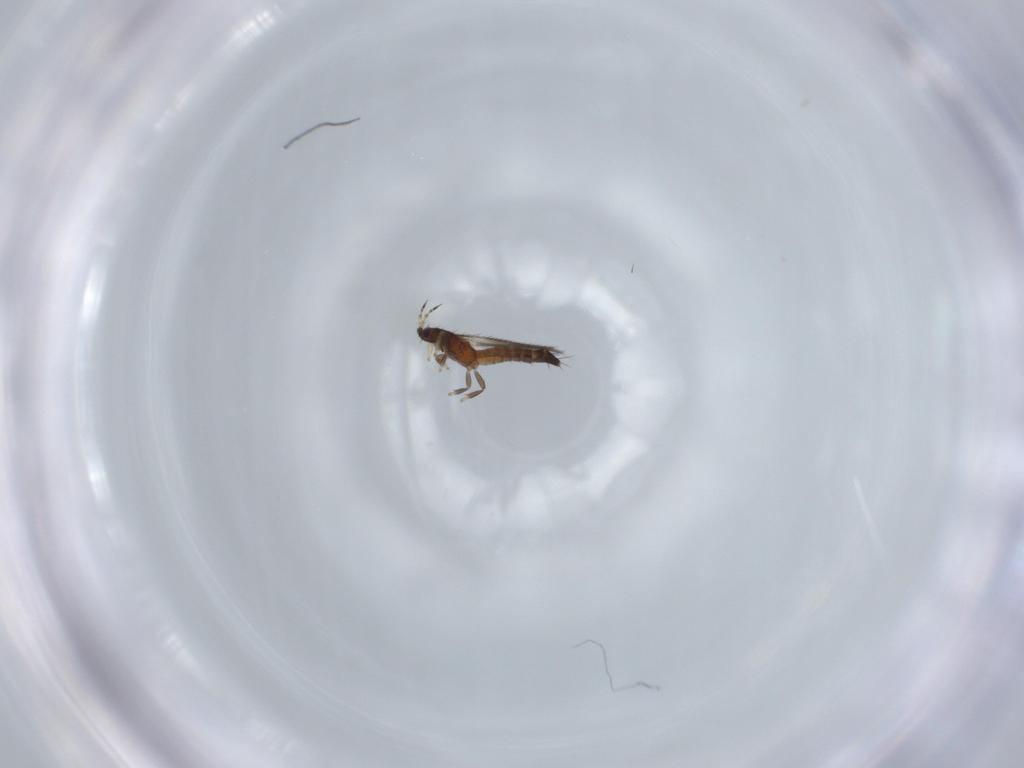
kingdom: Animalia
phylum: Arthropoda
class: Insecta
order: Thysanoptera
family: Thripidae
